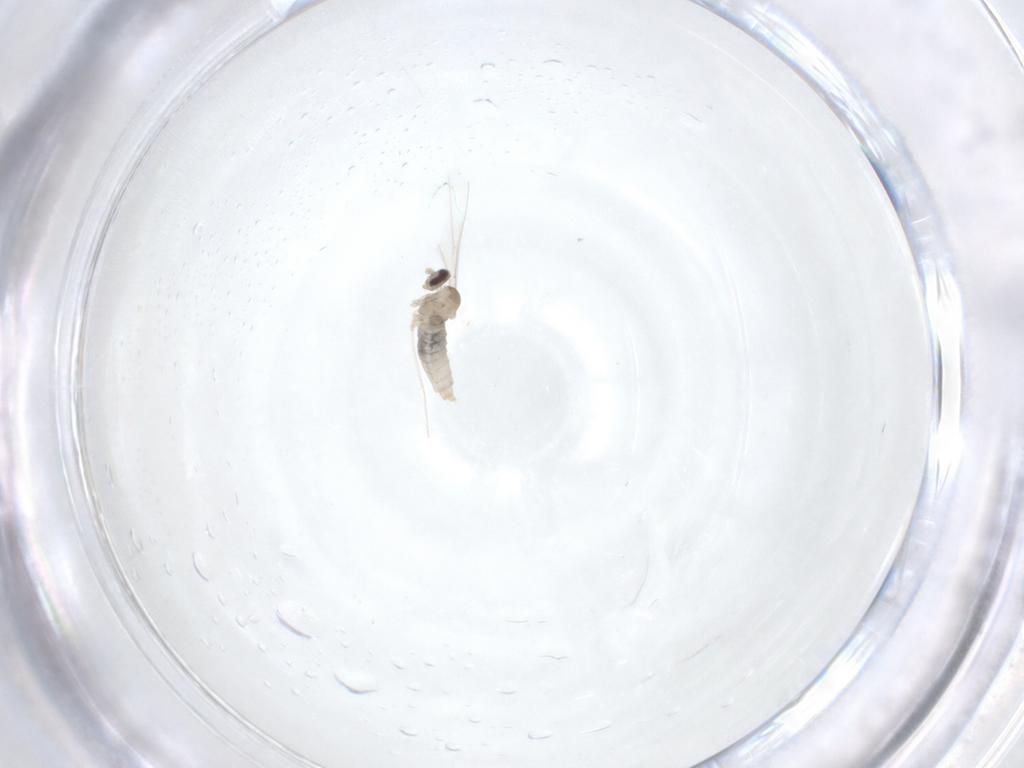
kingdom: Animalia
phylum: Arthropoda
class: Insecta
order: Diptera
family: Cecidomyiidae
